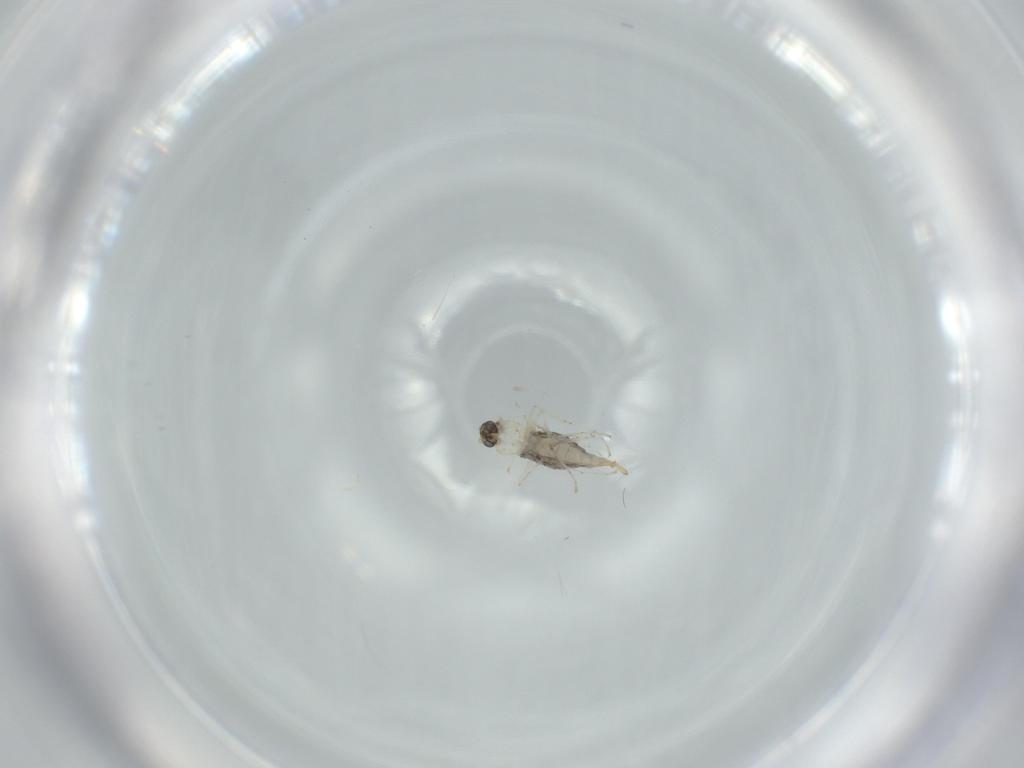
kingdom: Animalia
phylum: Arthropoda
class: Insecta
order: Diptera
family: Cecidomyiidae
